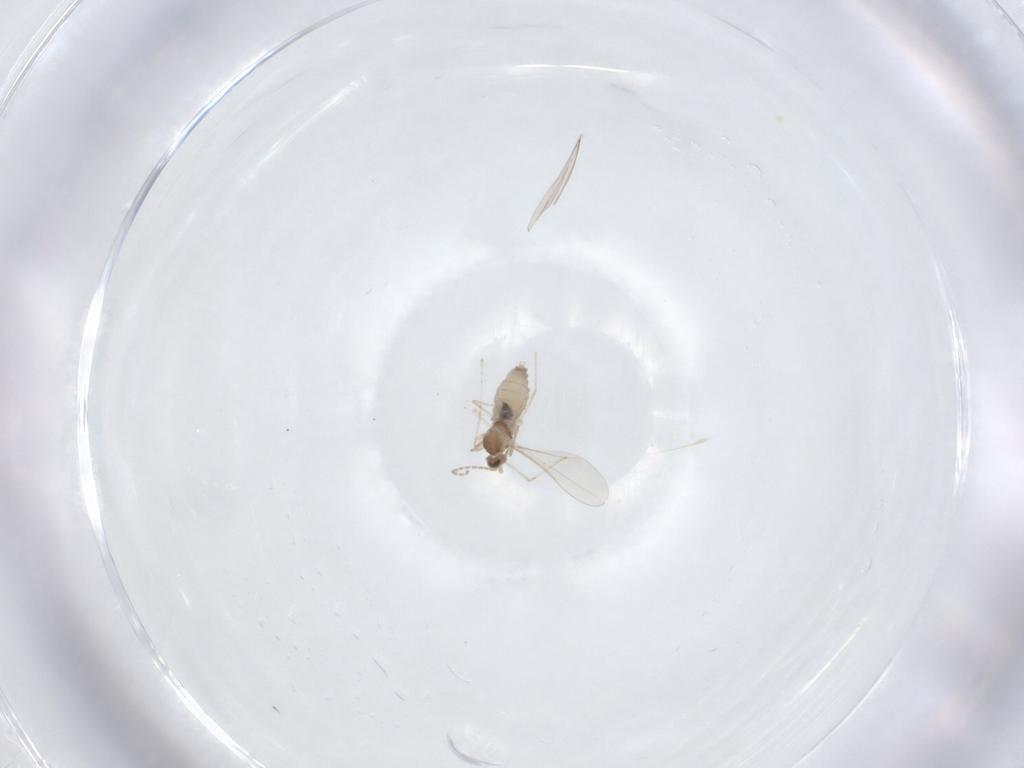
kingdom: Animalia
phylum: Arthropoda
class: Insecta
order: Diptera
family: Cecidomyiidae
